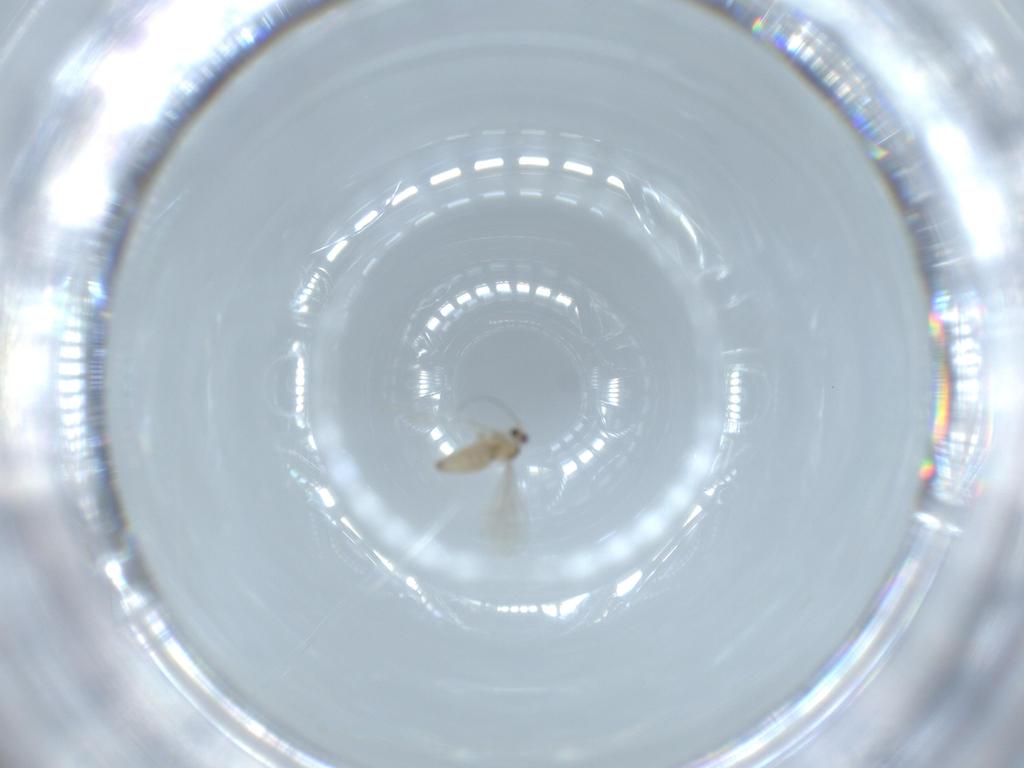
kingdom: Animalia
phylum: Arthropoda
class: Insecta
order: Diptera
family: Cecidomyiidae
